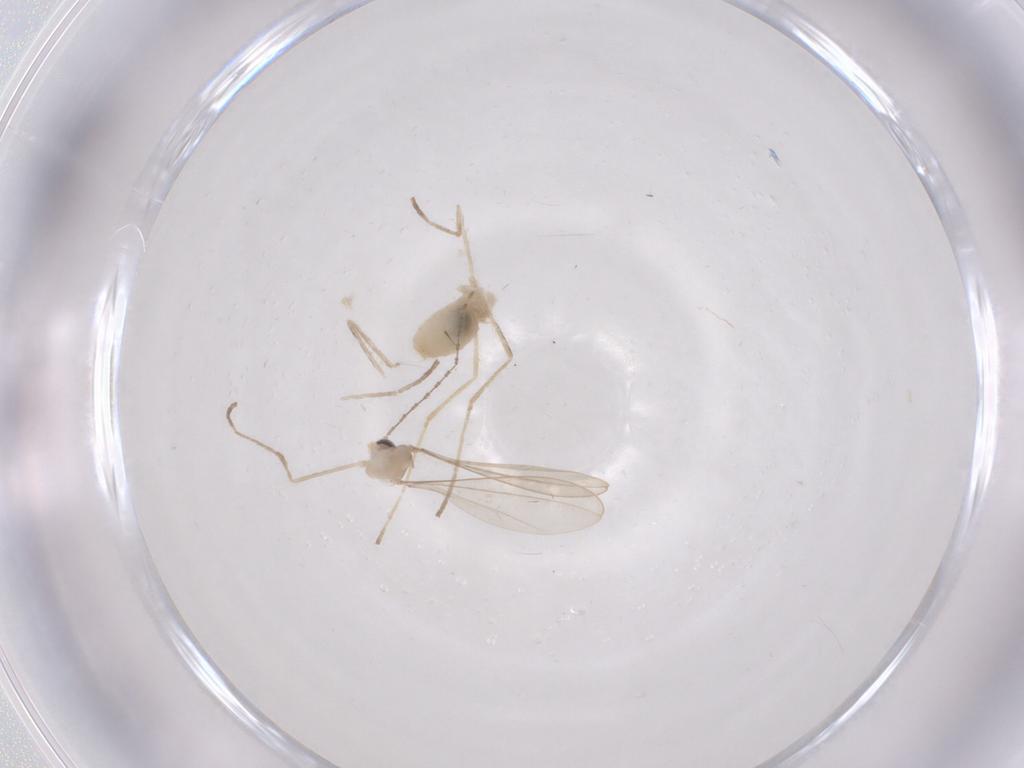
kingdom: Animalia
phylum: Arthropoda
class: Insecta
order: Diptera
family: Cecidomyiidae
